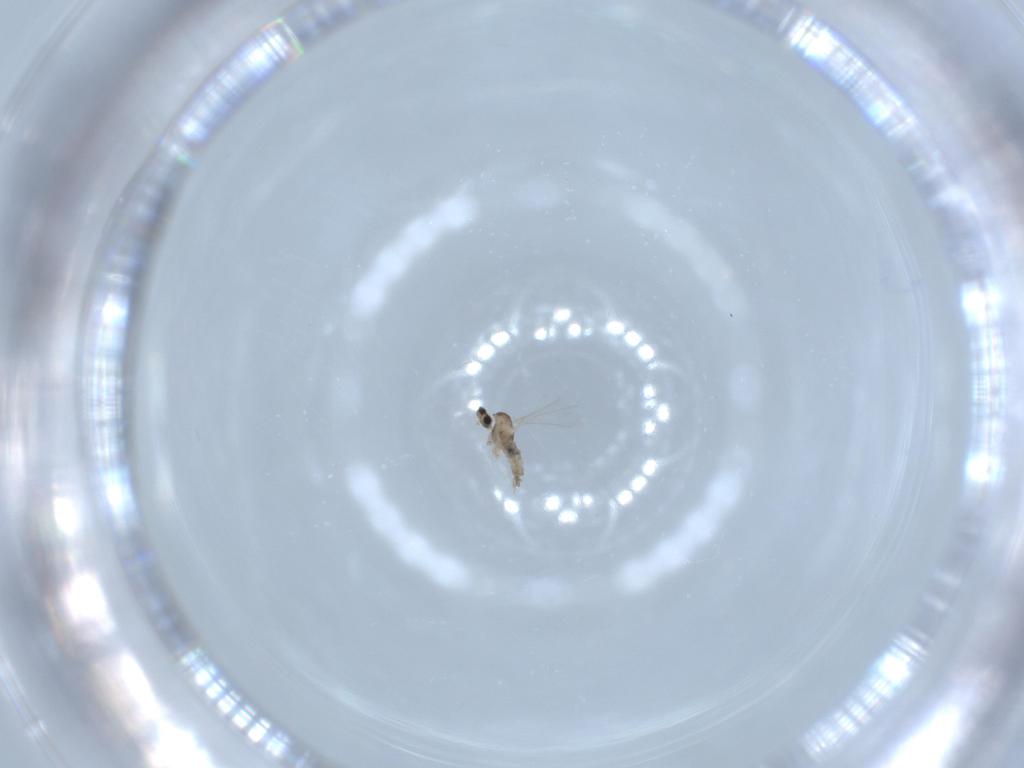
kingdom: Animalia
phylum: Arthropoda
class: Insecta
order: Diptera
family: Cecidomyiidae
